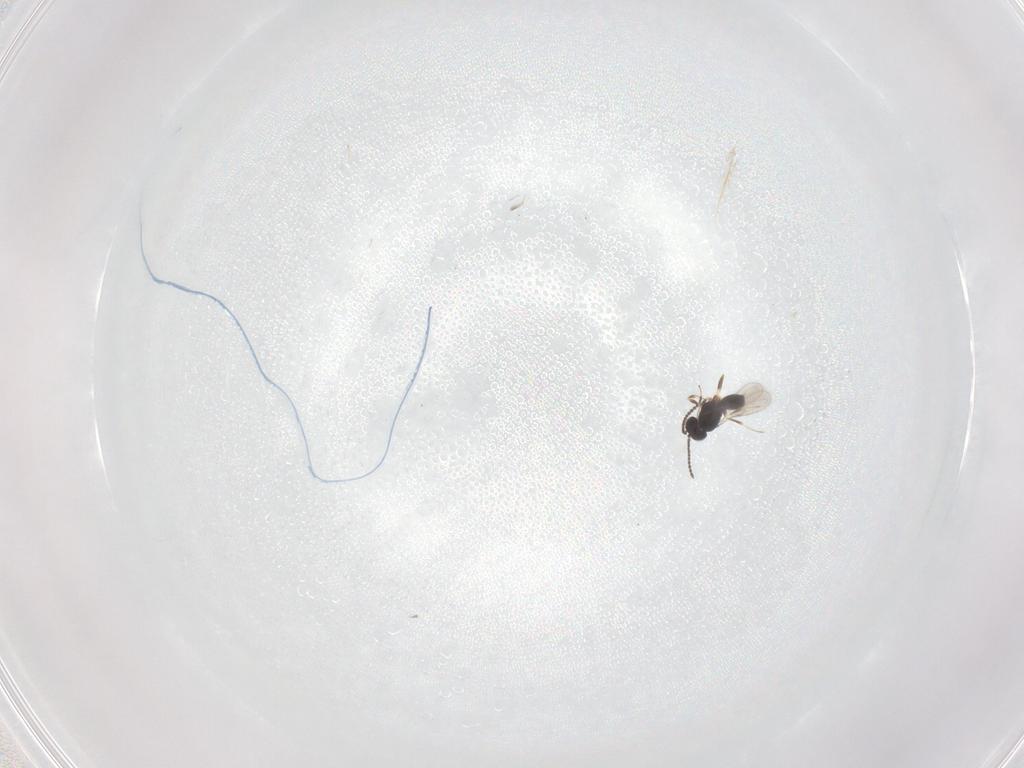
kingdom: Animalia
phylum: Arthropoda
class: Insecta
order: Hymenoptera
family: Scelionidae
